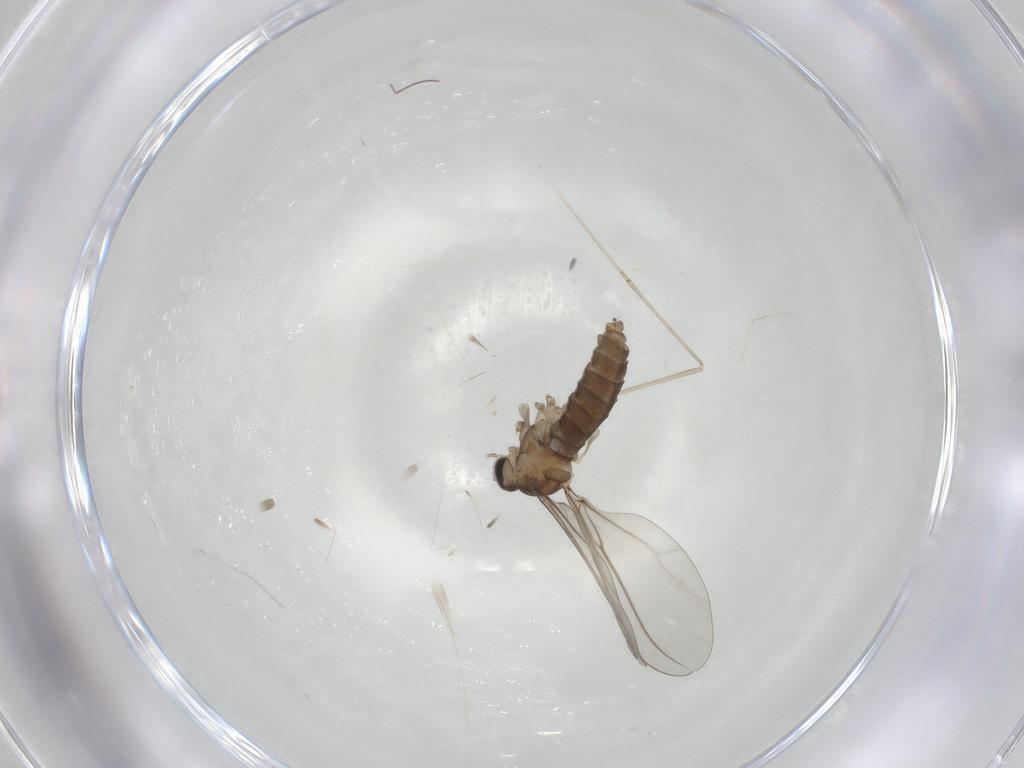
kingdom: Animalia
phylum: Arthropoda
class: Insecta
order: Diptera
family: Cecidomyiidae
